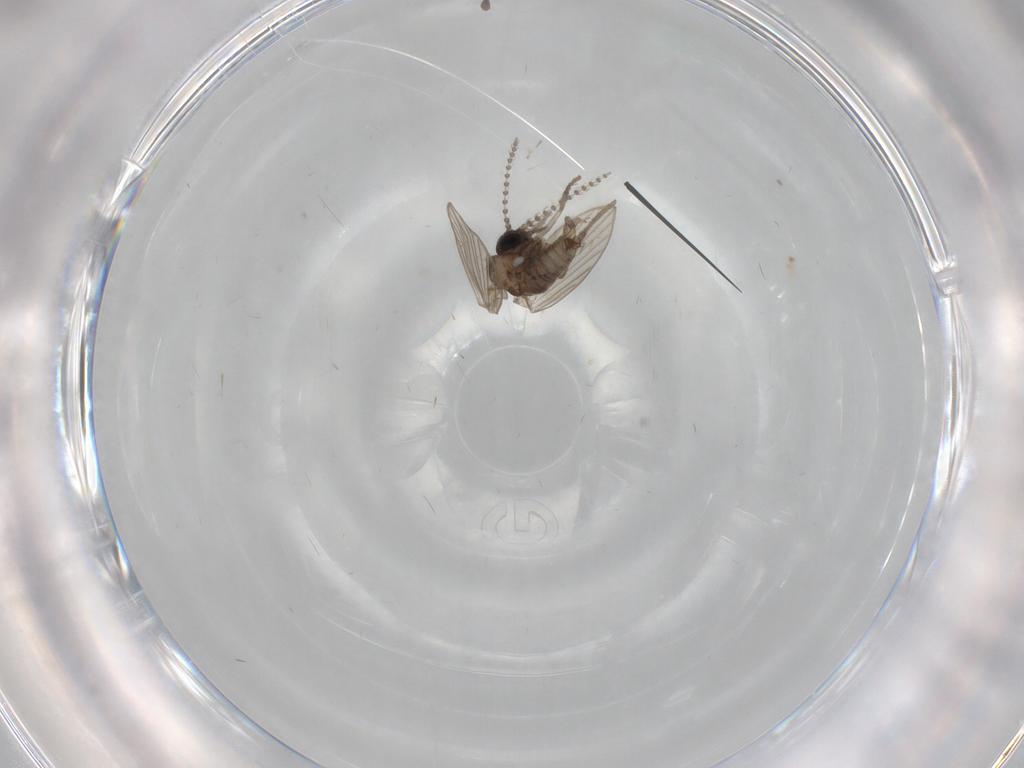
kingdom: Animalia
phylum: Arthropoda
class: Insecta
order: Diptera
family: Psychodidae
